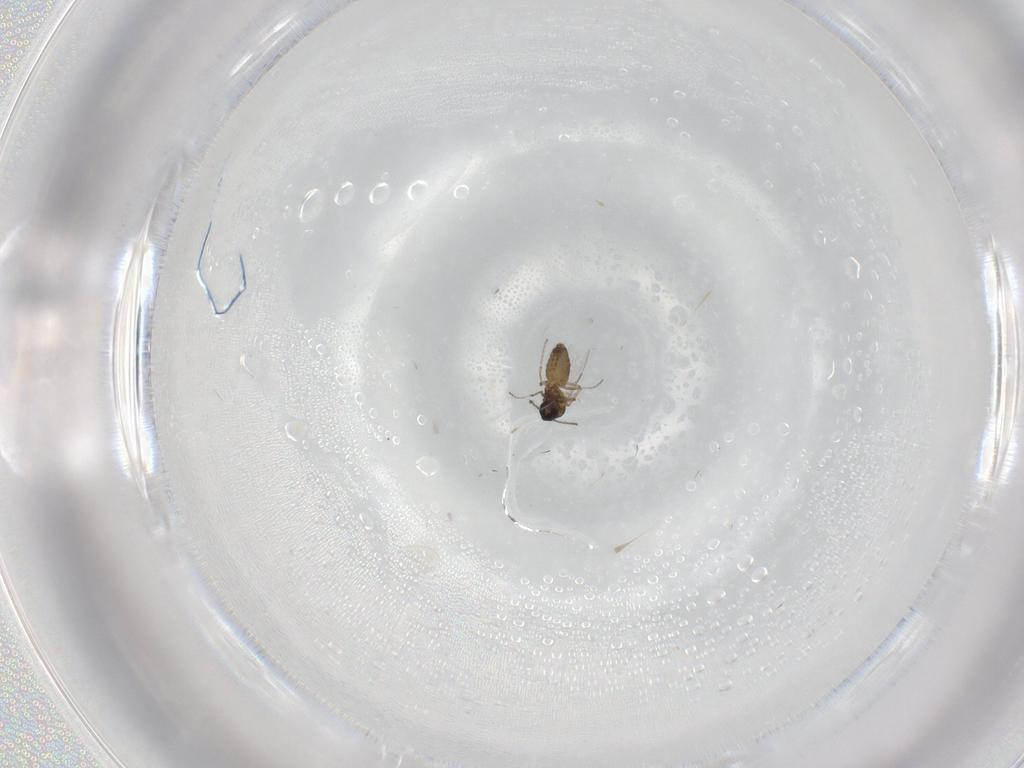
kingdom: Animalia
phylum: Arthropoda
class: Insecta
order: Diptera
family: Ceratopogonidae
